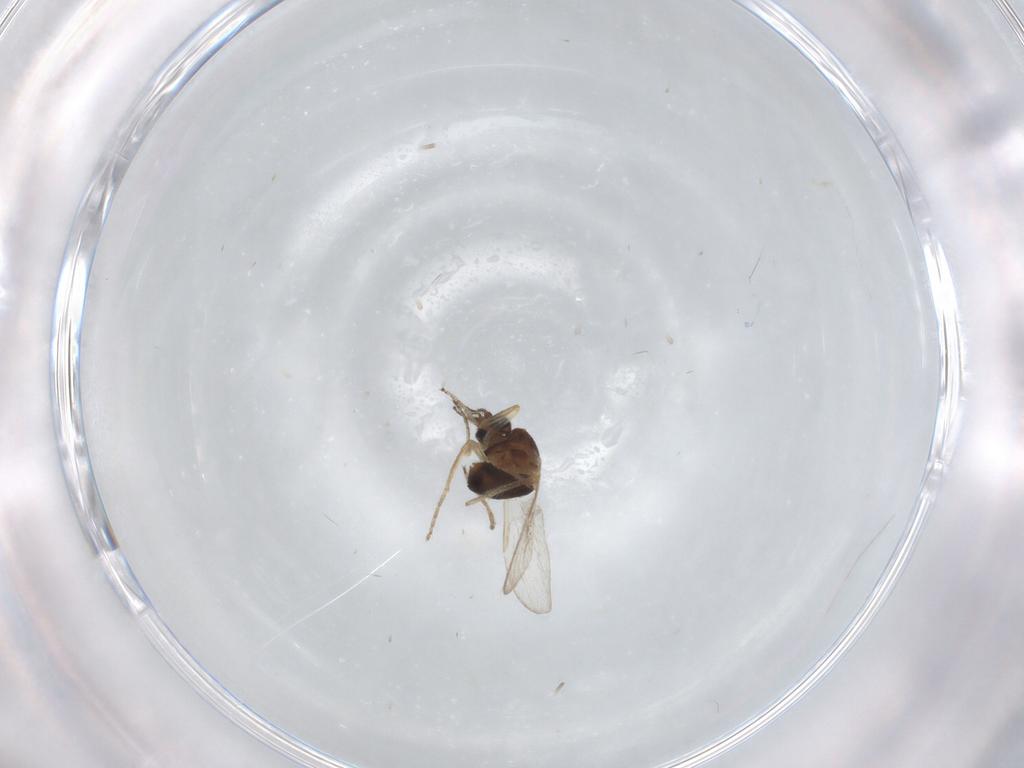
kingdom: Animalia
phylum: Arthropoda
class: Insecta
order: Diptera
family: Ceratopogonidae
